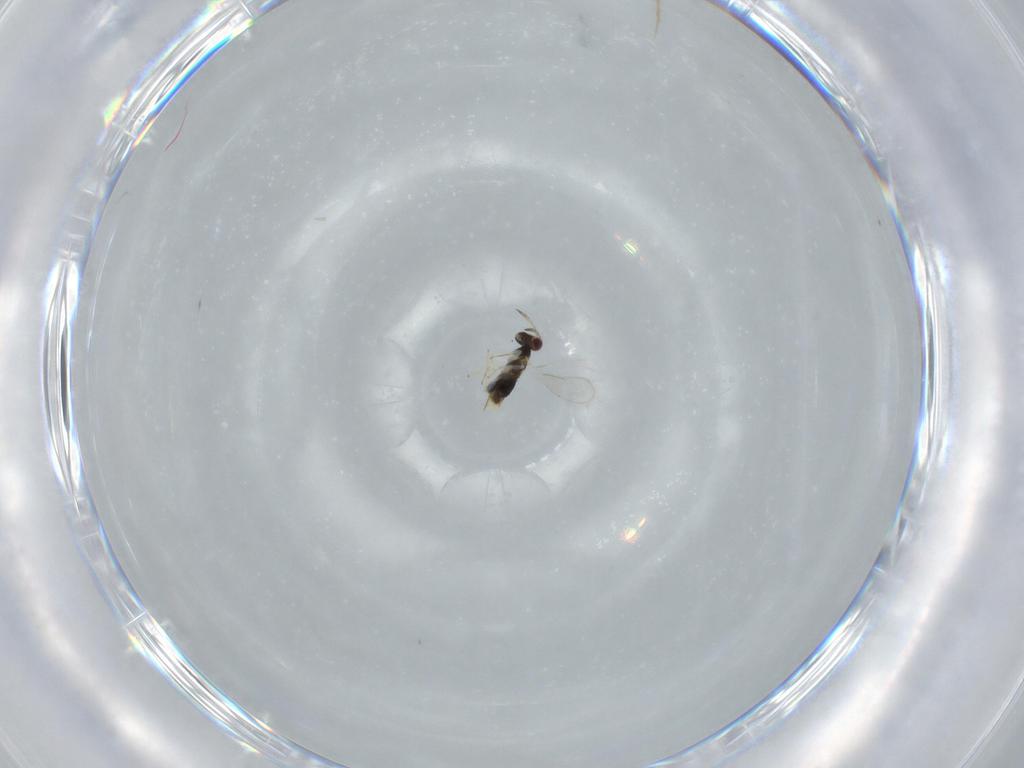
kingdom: Animalia
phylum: Arthropoda
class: Insecta
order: Hymenoptera
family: Aphelinidae
